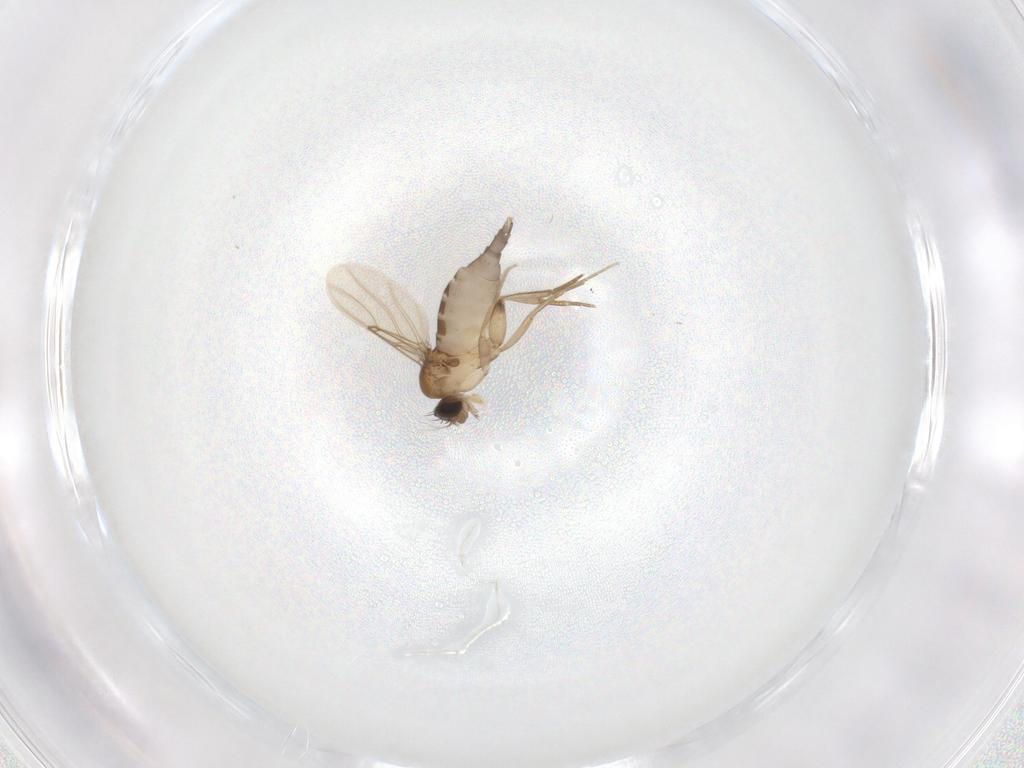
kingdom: Animalia
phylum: Arthropoda
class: Insecta
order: Diptera
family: Phoridae
